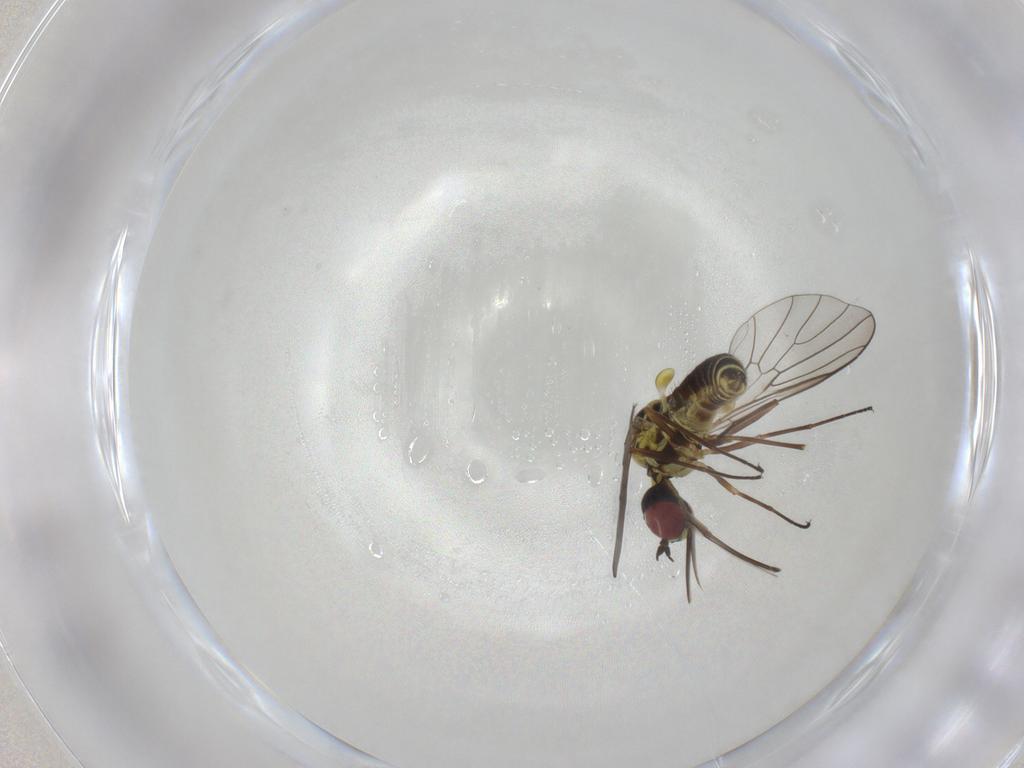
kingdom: Animalia
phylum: Arthropoda
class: Insecta
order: Diptera
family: Bombyliidae
